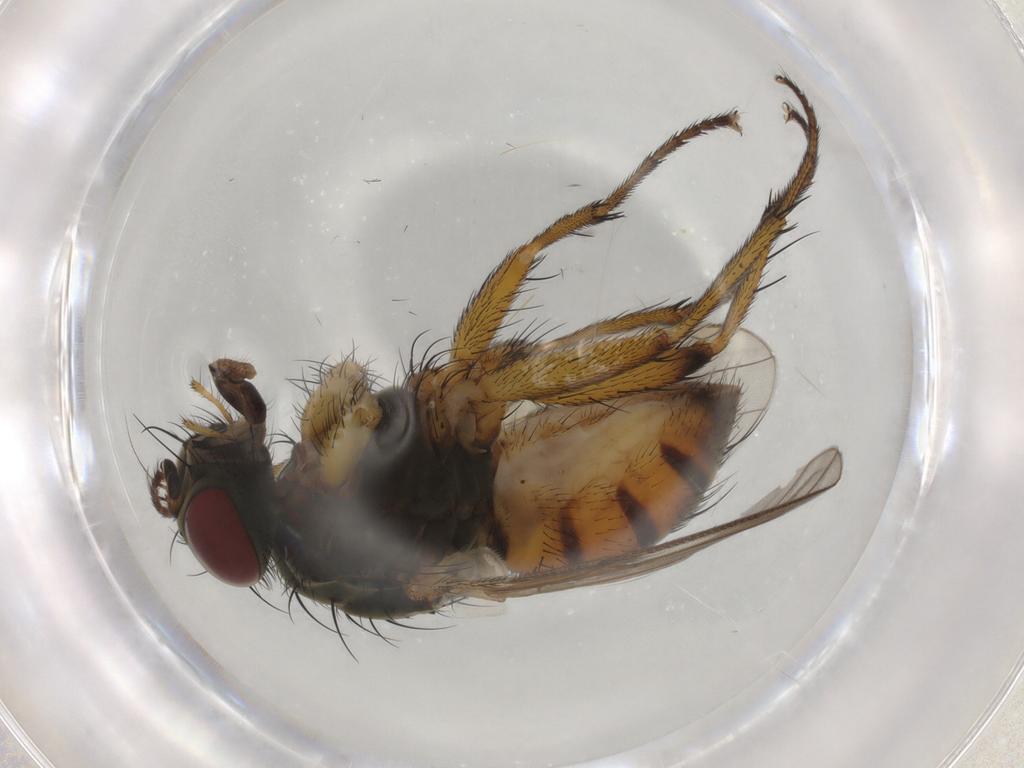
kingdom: Animalia
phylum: Arthropoda
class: Insecta
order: Diptera
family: Muscidae
